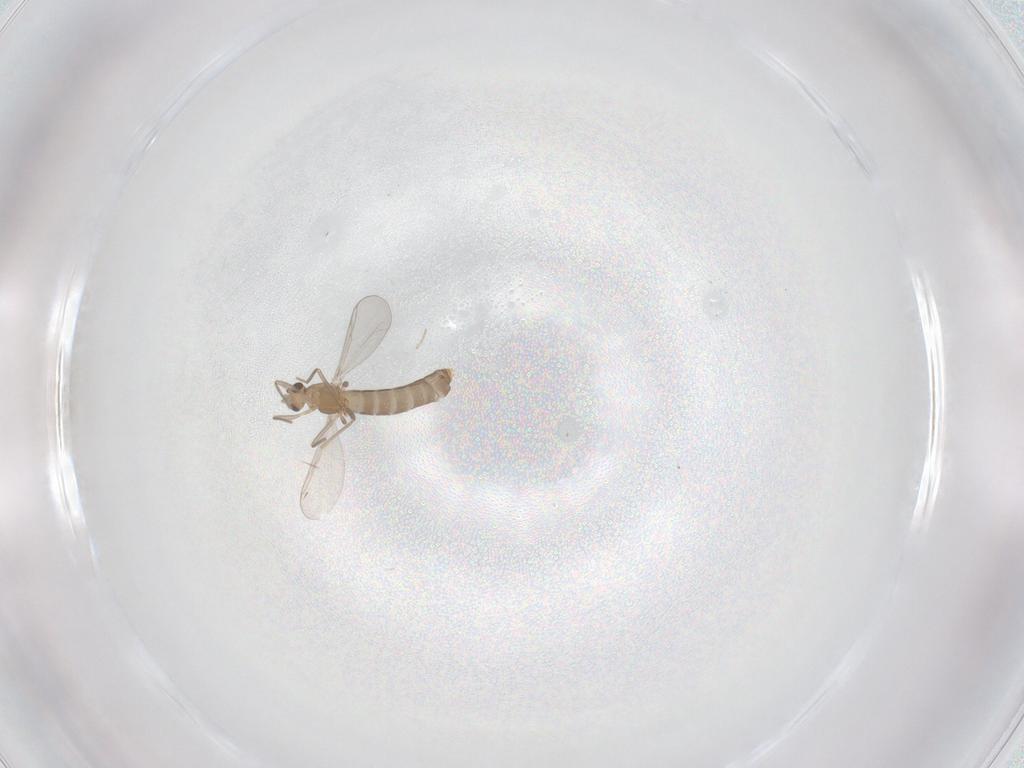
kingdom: Animalia
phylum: Arthropoda
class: Insecta
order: Diptera
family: Chironomidae
